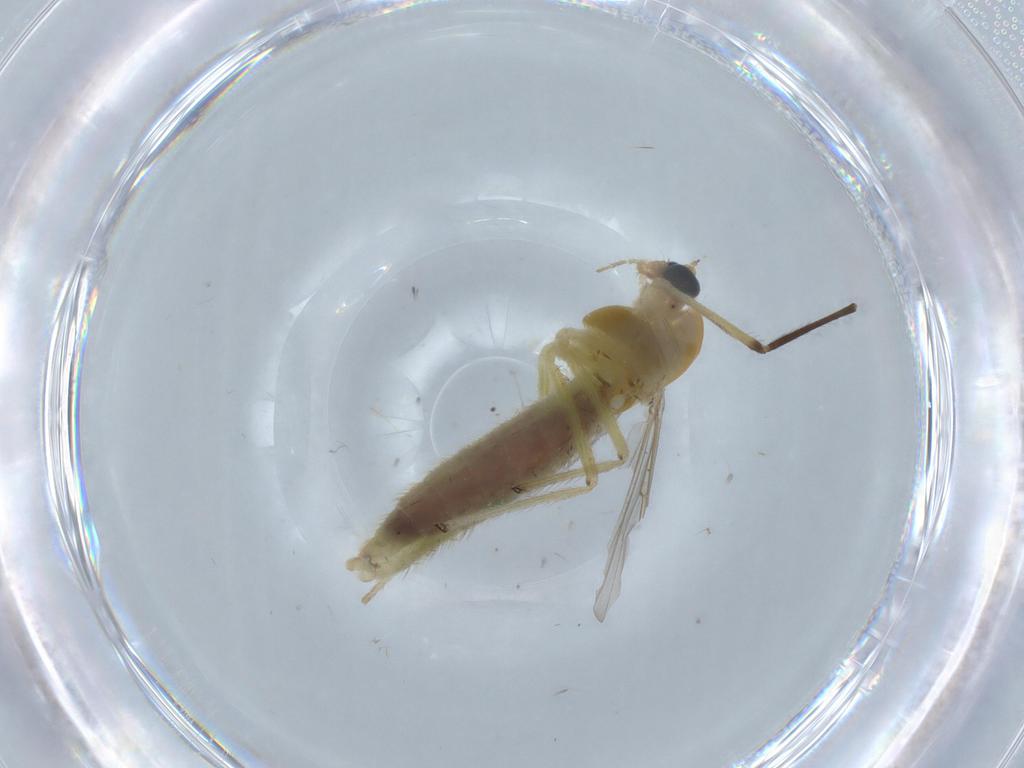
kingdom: Animalia
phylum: Arthropoda
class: Insecta
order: Diptera
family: Chironomidae
